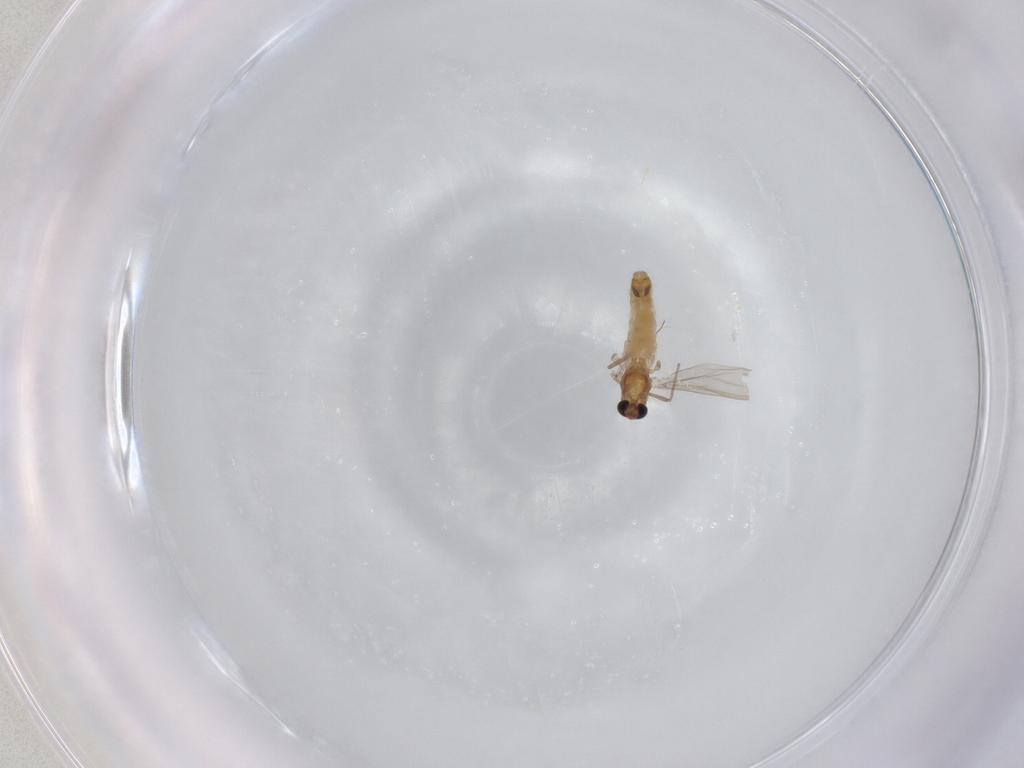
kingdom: Animalia
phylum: Arthropoda
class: Insecta
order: Diptera
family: Chironomidae
